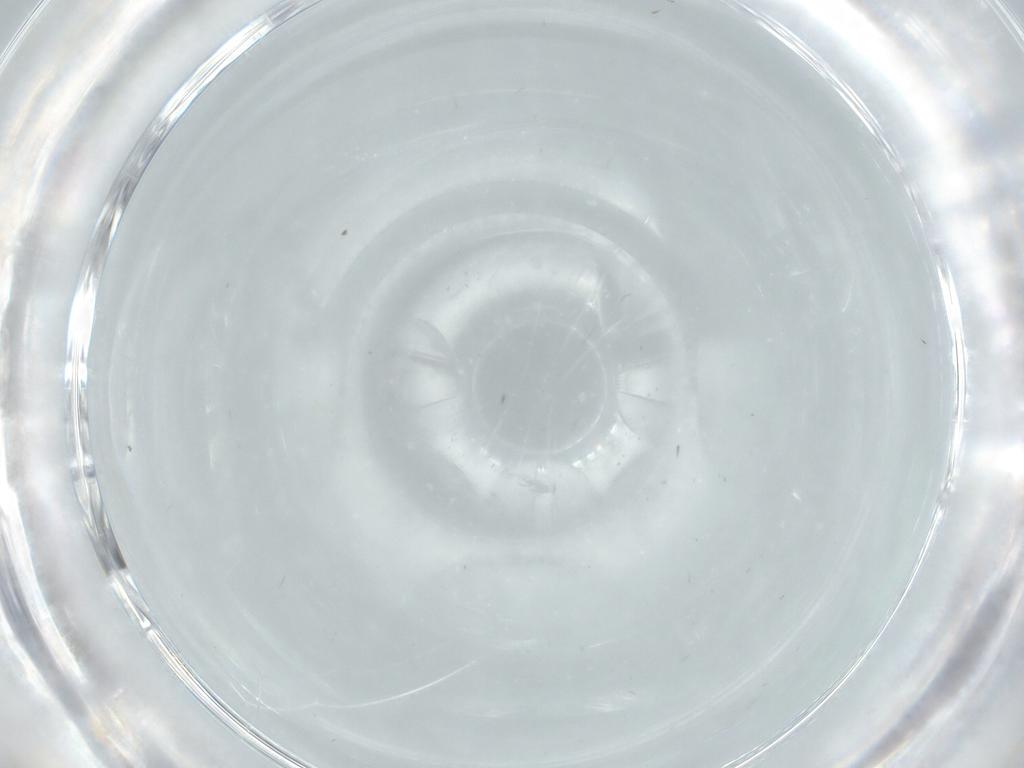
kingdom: Animalia
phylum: Arthropoda
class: Insecta
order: Diptera
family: Cecidomyiidae
